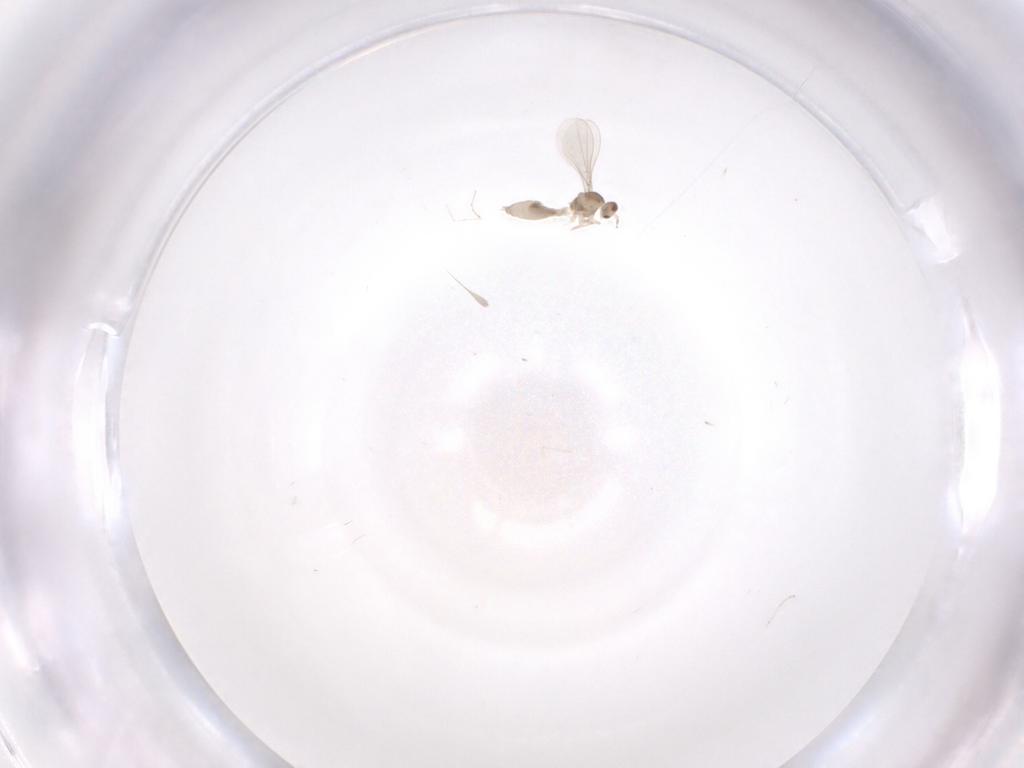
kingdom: Animalia
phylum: Arthropoda
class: Insecta
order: Diptera
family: Cecidomyiidae
